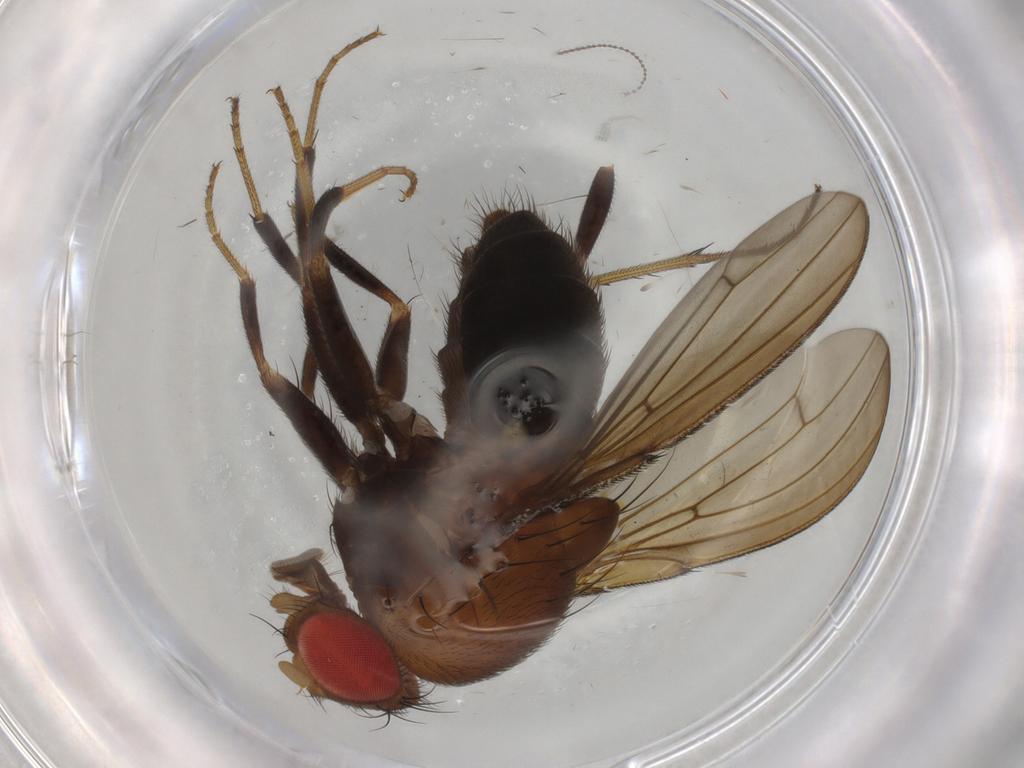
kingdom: Animalia
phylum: Arthropoda
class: Insecta
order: Diptera
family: Drosophilidae
